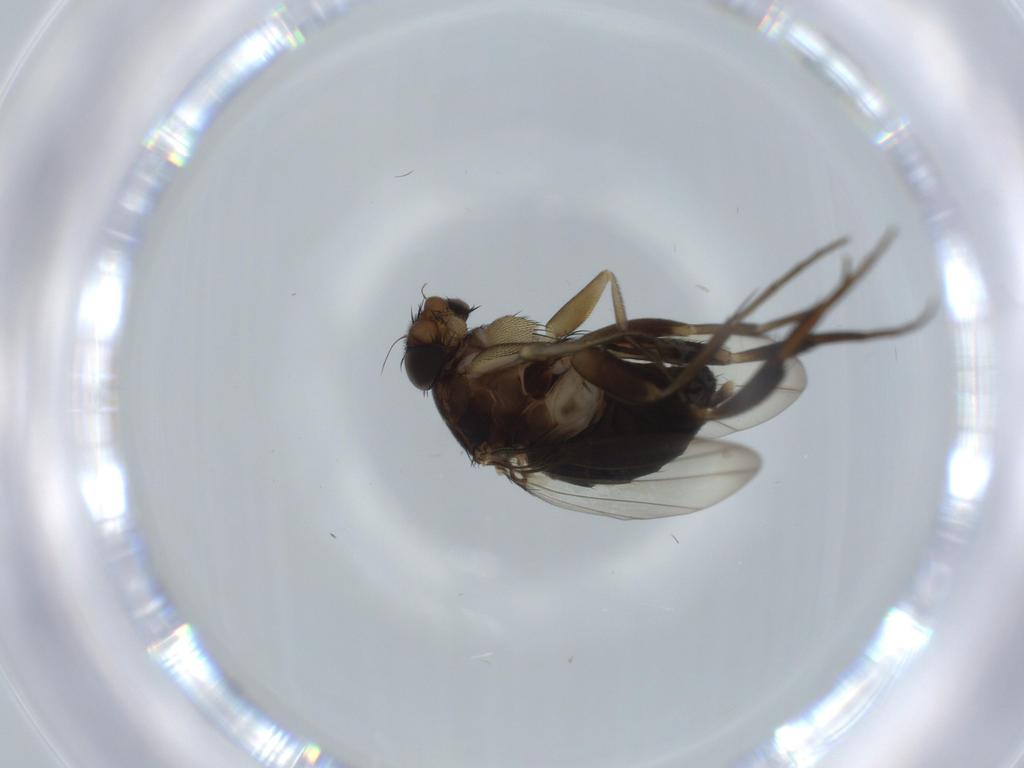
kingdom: Animalia
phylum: Arthropoda
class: Insecta
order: Diptera
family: Phoridae
